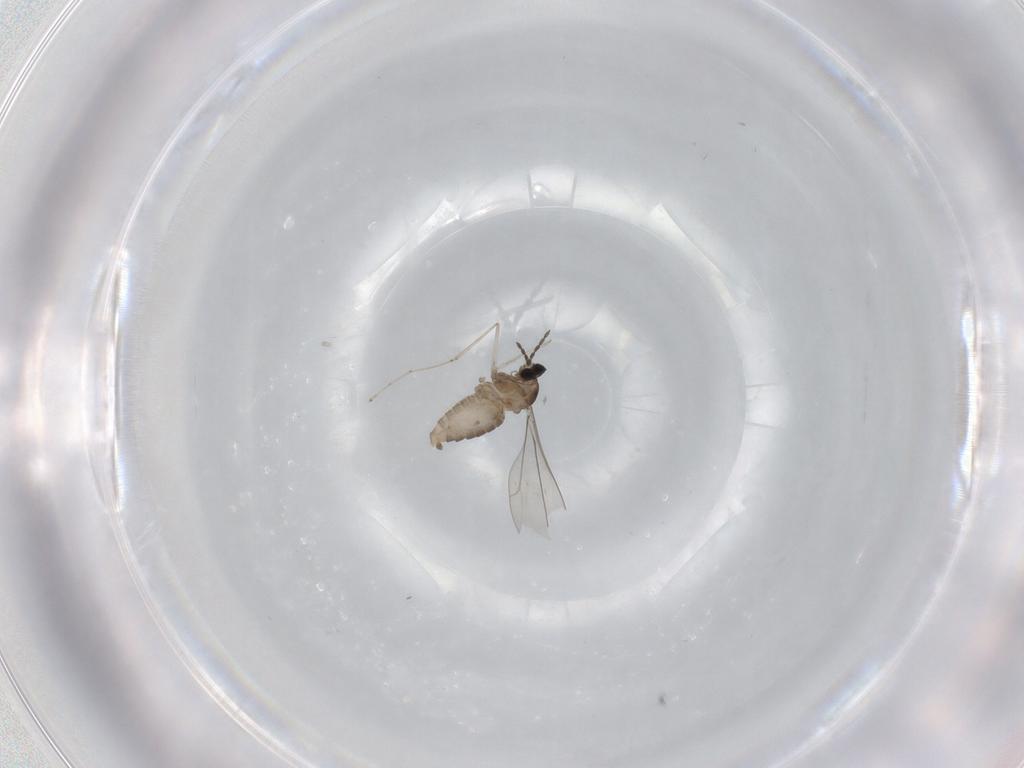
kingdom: Animalia
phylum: Arthropoda
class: Insecta
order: Diptera
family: Cecidomyiidae
